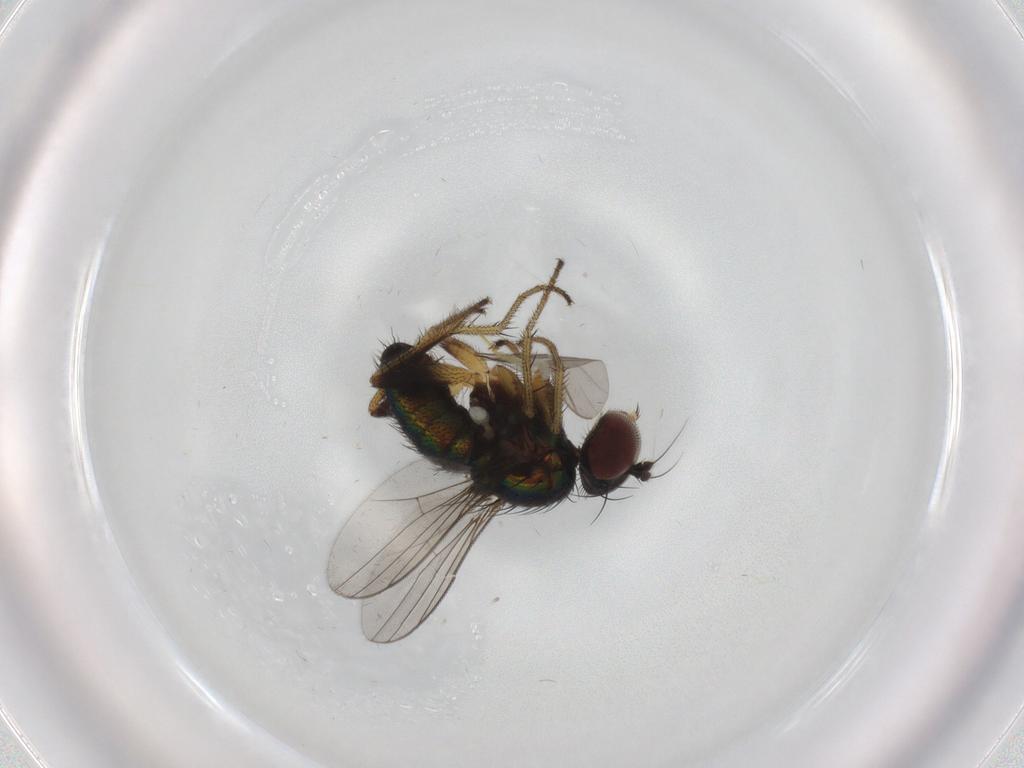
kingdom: Animalia
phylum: Arthropoda
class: Insecta
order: Diptera
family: Dolichopodidae
